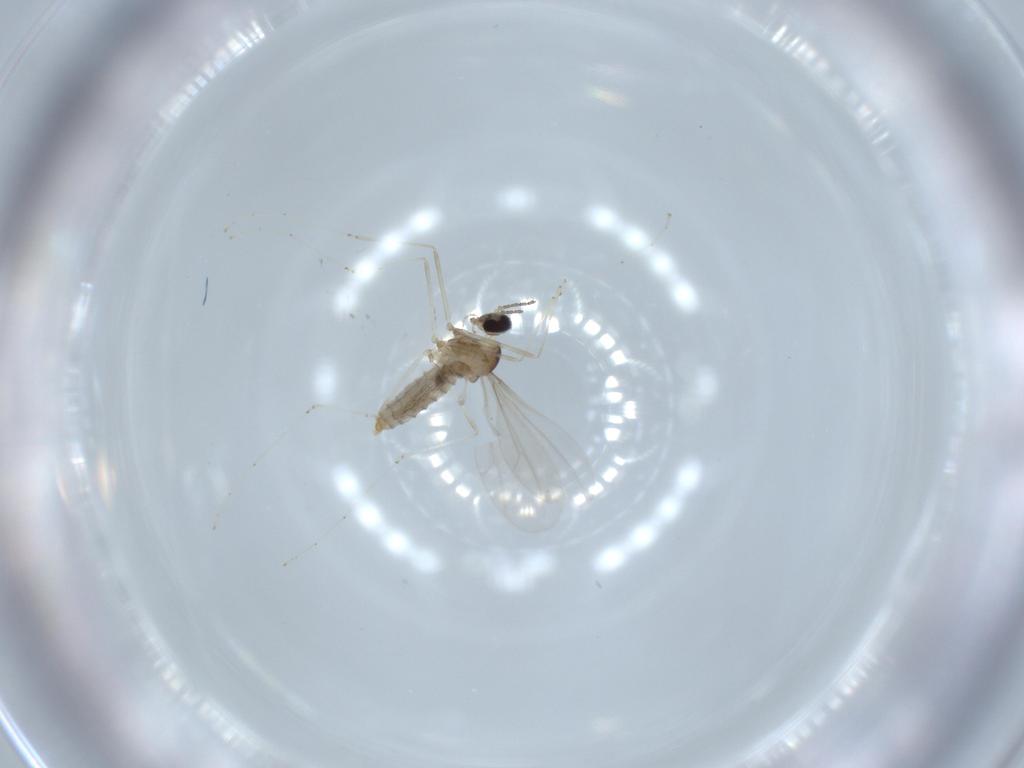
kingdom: Animalia
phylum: Arthropoda
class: Insecta
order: Diptera
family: Cecidomyiidae
